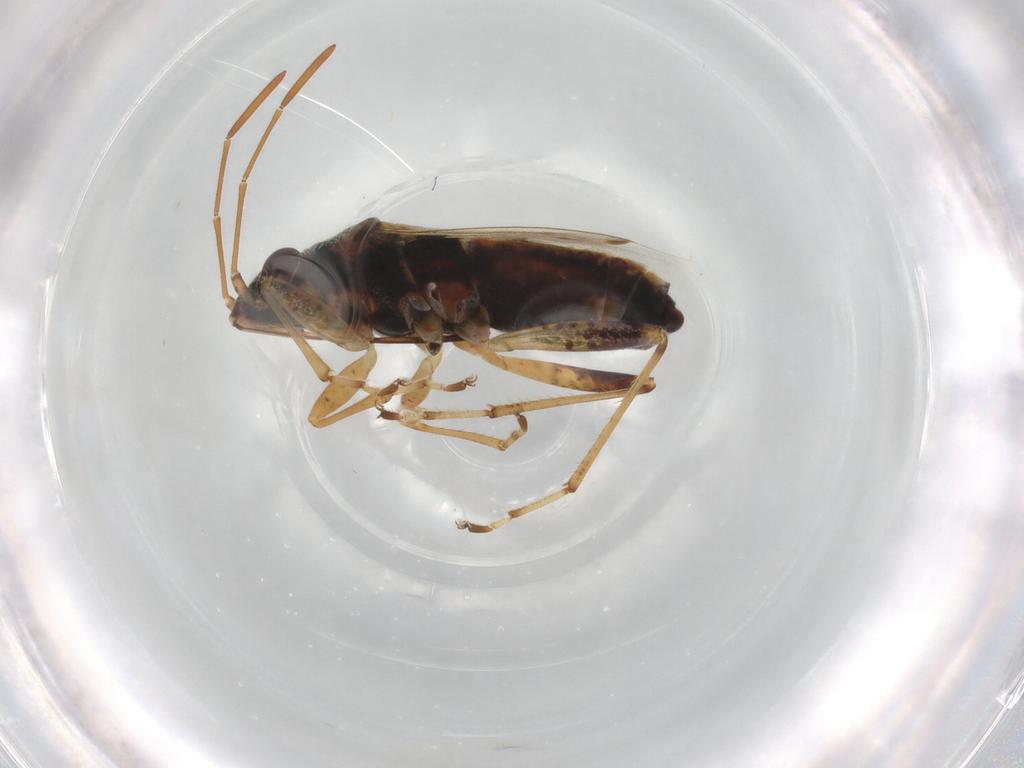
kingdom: Animalia
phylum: Arthropoda
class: Insecta
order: Hemiptera
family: Lygaeidae
